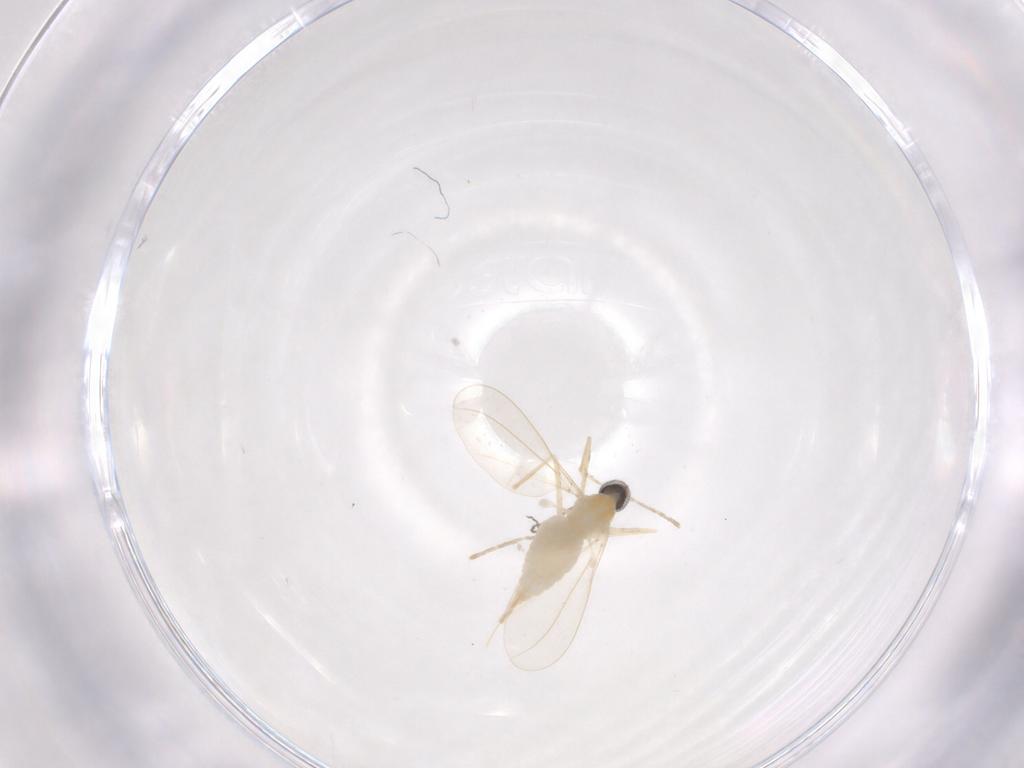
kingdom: Animalia
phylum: Arthropoda
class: Insecta
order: Diptera
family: Cecidomyiidae
